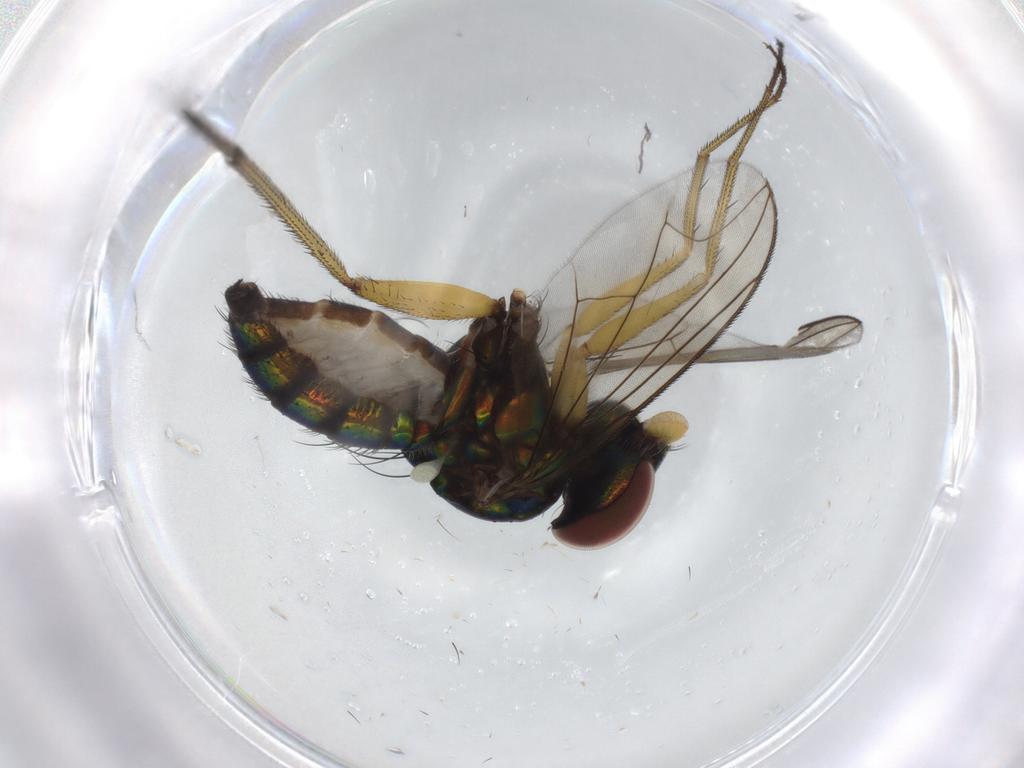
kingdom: Animalia
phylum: Arthropoda
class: Insecta
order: Diptera
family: Dolichopodidae
